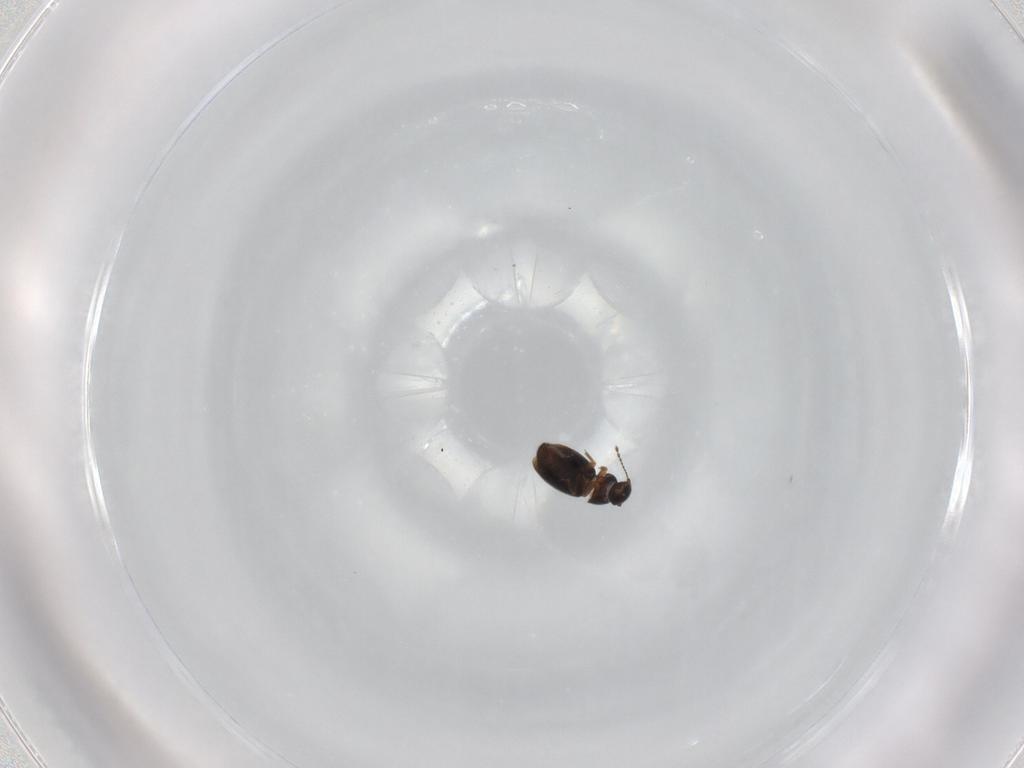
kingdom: Animalia
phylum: Arthropoda
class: Insecta
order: Coleoptera
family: Ptiliidae
